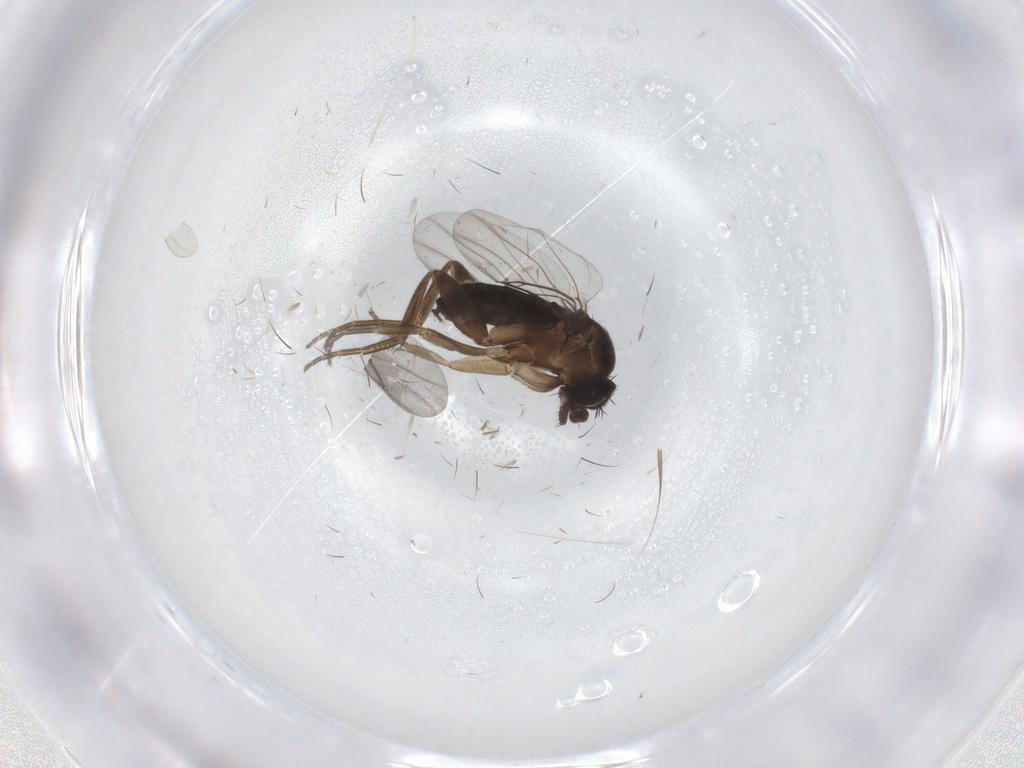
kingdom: Animalia
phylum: Arthropoda
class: Insecta
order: Diptera
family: Phoridae
